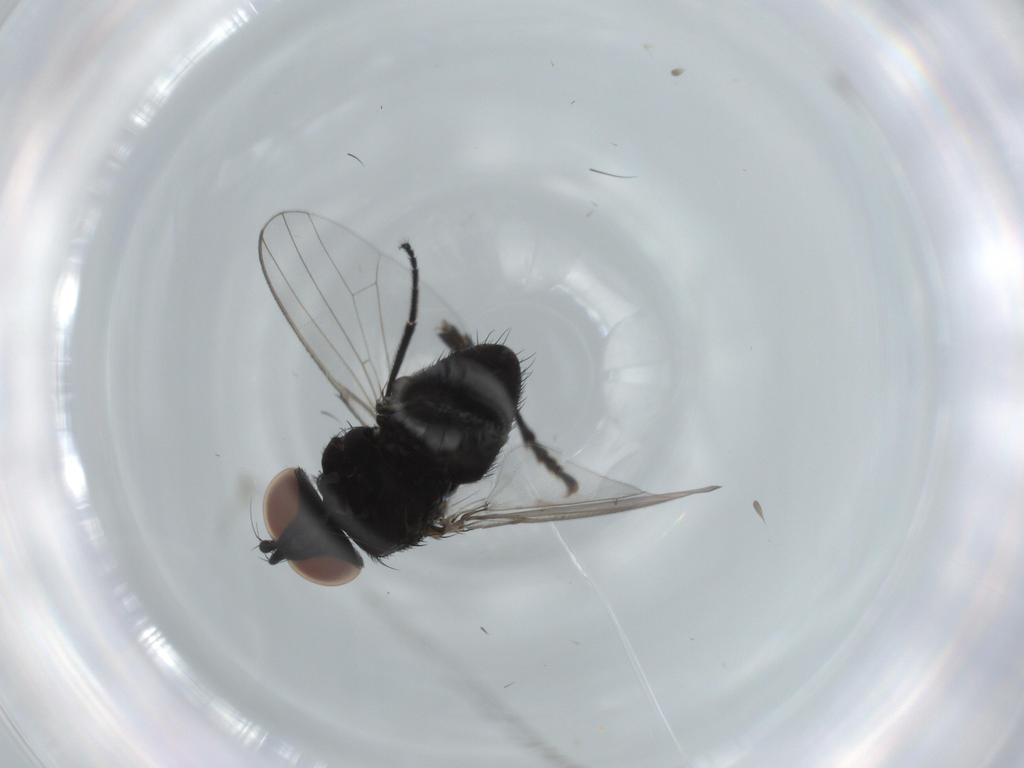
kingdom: Animalia
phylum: Arthropoda
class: Insecta
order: Diptera
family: Milichiidae
